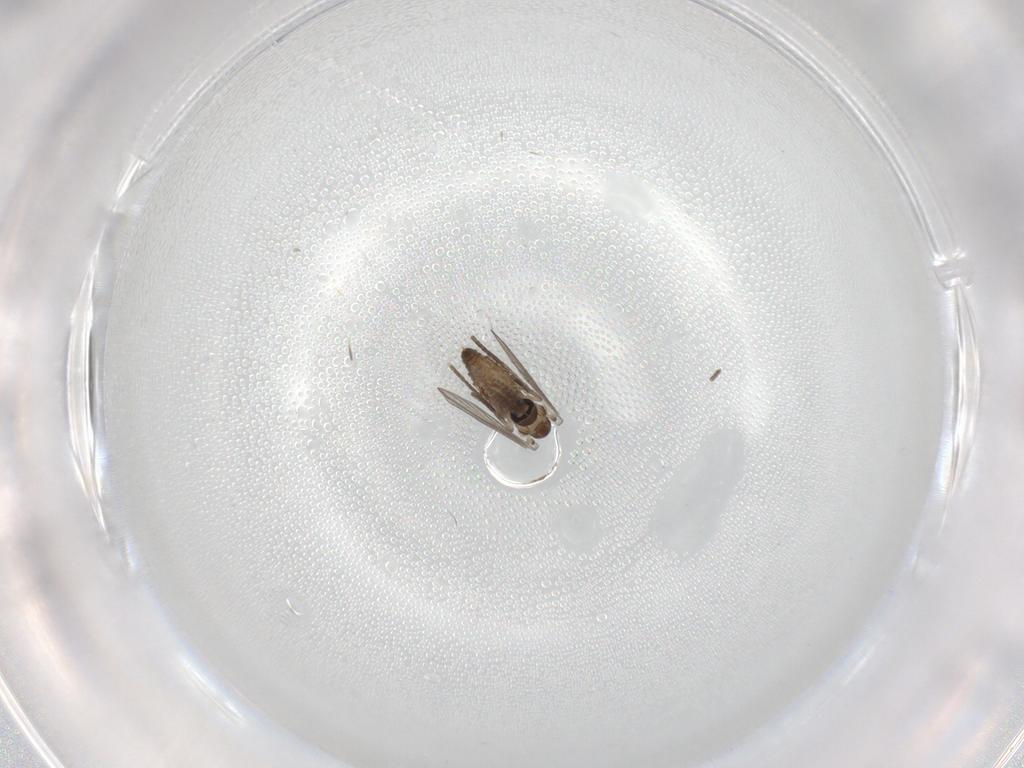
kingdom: Animalia
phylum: Arthropoda
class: Insecta
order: Diptera
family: Psychodidae
